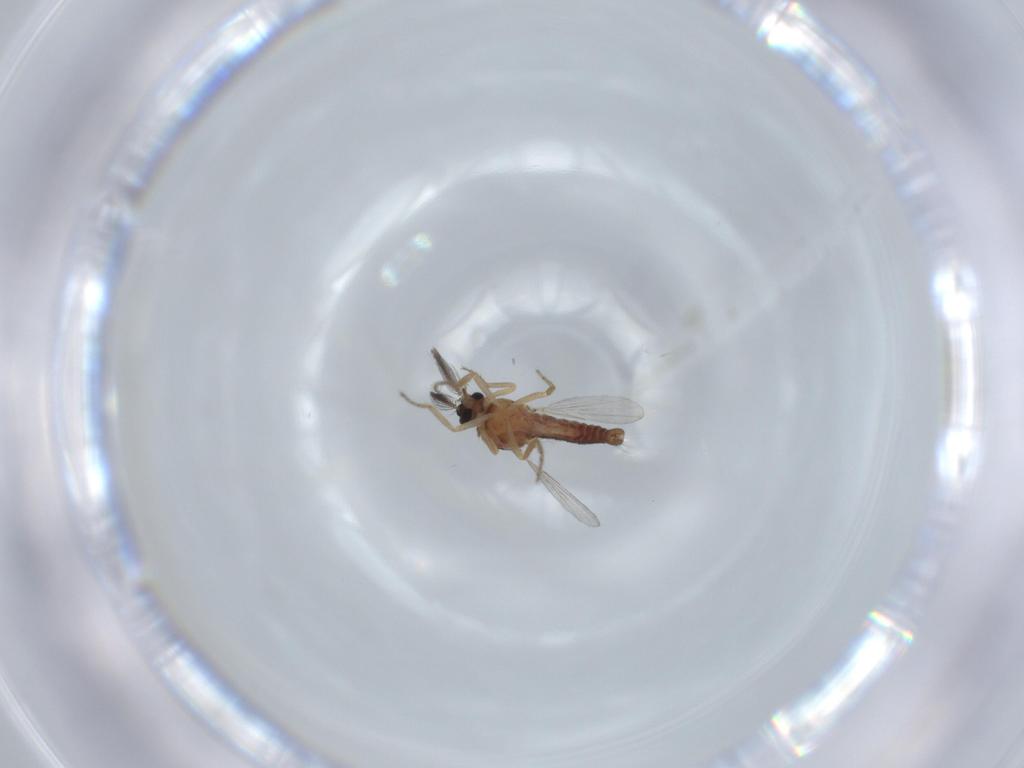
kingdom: Animalia
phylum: Arthropoda
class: Insecta
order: Diptera
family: Ceratopogonidae
